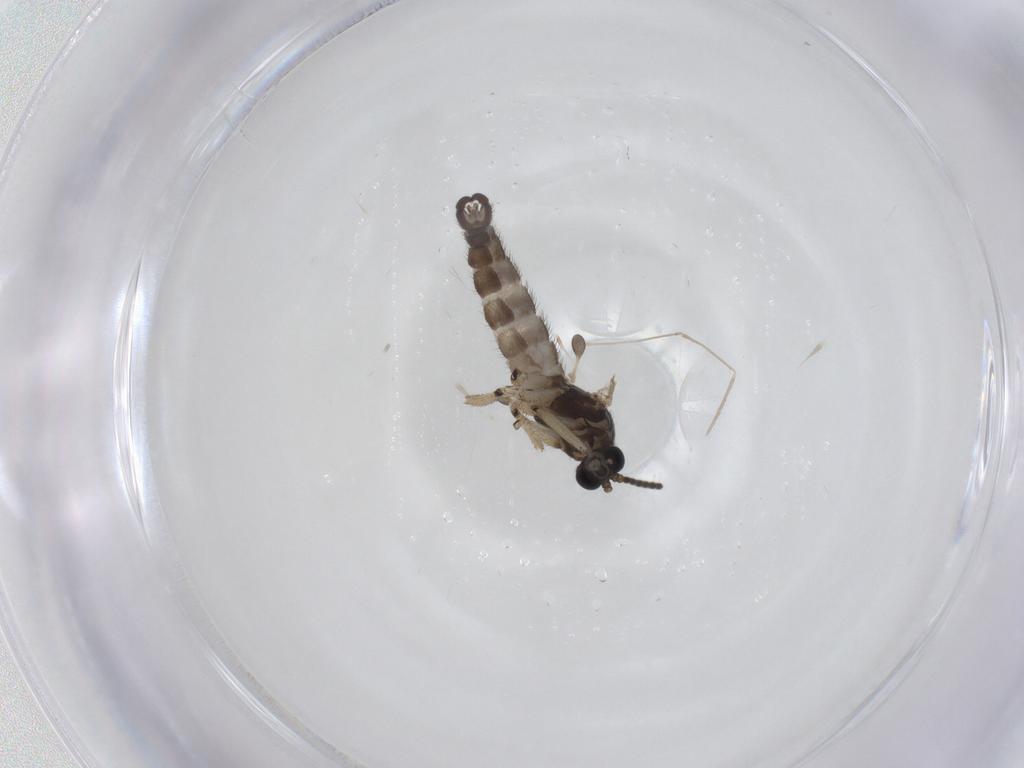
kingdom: Animalia
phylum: Arthropoda
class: Insecta
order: Diptera
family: Sciaridae
